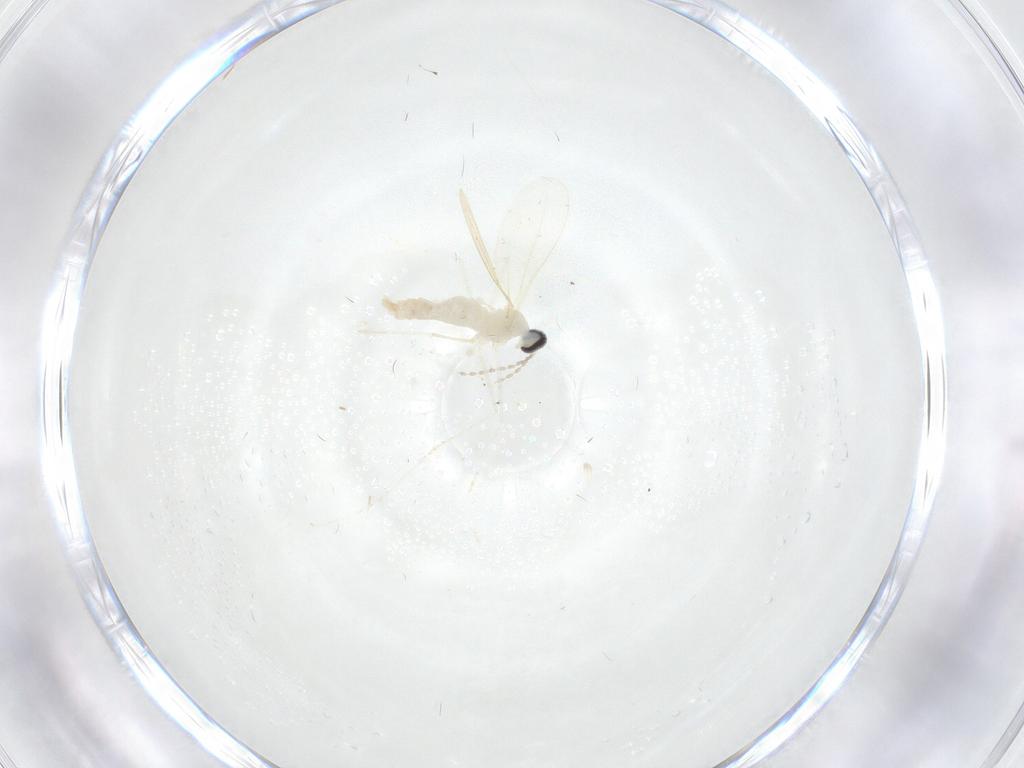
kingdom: Animalia
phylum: Arthropoda
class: Insecta
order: Diptera
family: Cecidomyiidae
